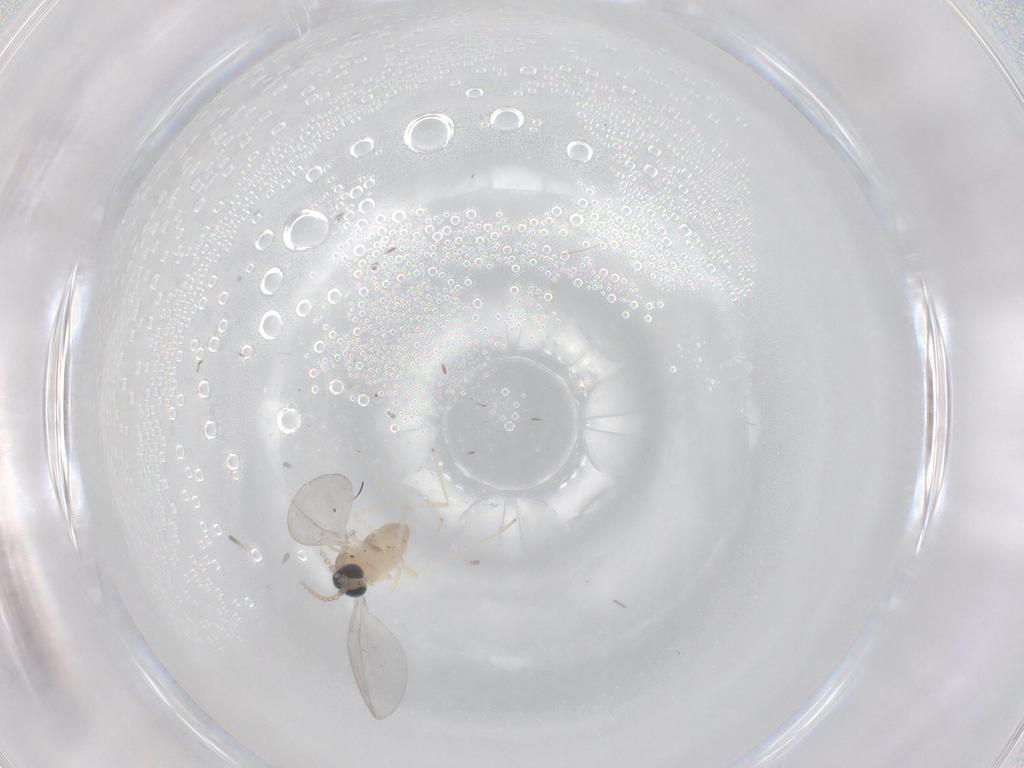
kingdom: Animalia
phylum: Arthropoda
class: Insecta
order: Diptera
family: Cecidomyiidae
